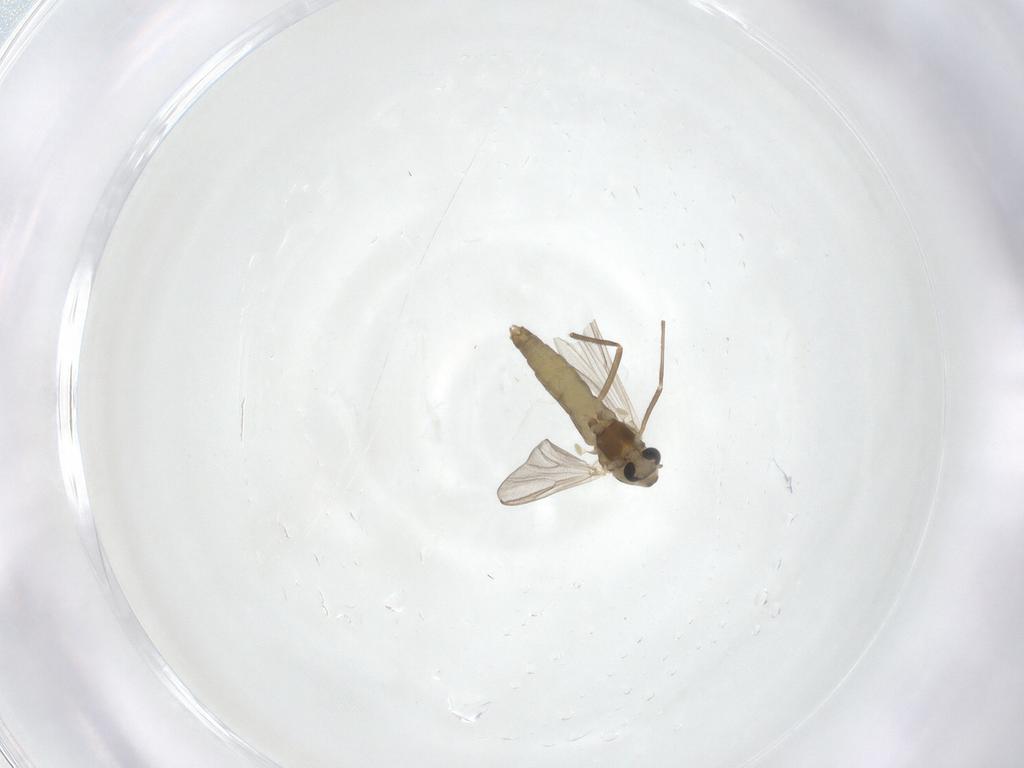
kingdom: Animalia
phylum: Arthropoda
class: Insecta
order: Diptera
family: Chironomidae
